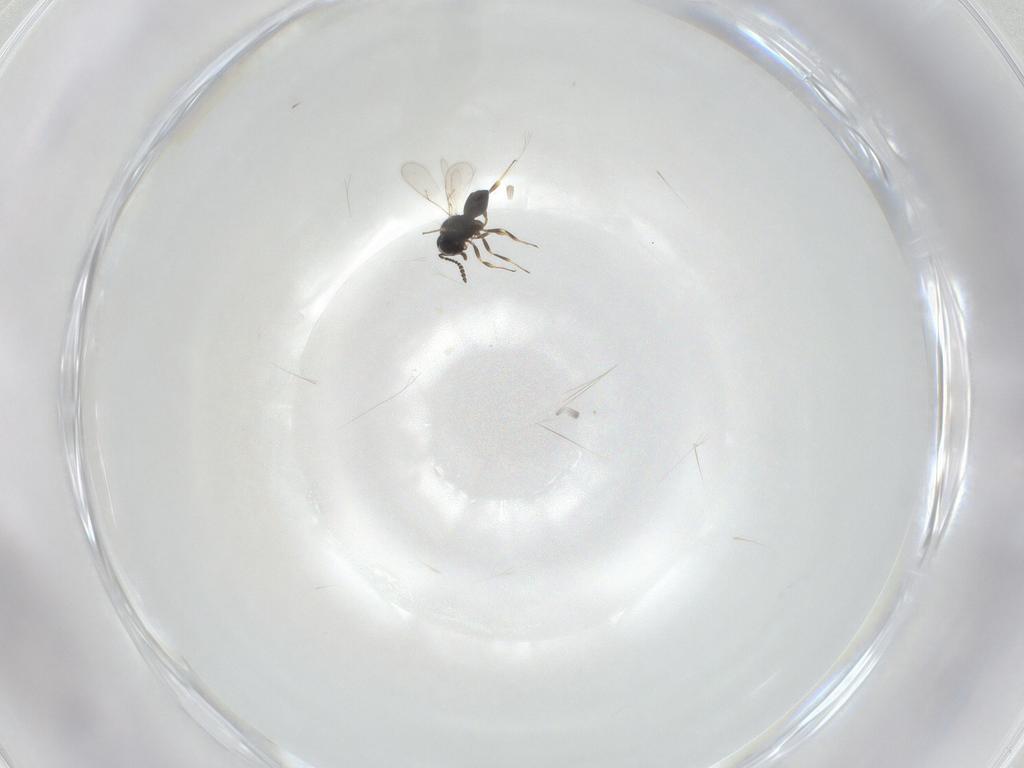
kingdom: Animalia
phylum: Arthropoda
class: Insecta
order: Hymenoptera
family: Scelionidae
